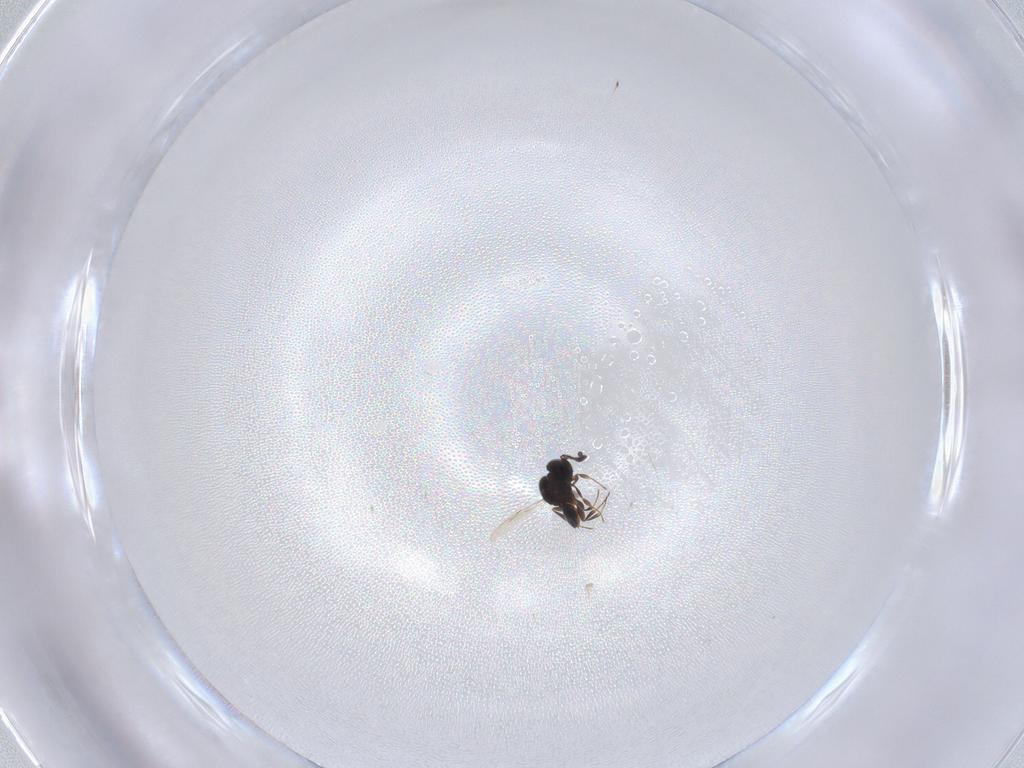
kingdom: Animalia
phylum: Arthropoda
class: Insecta
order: Hymenoptera
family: Scelionidae
